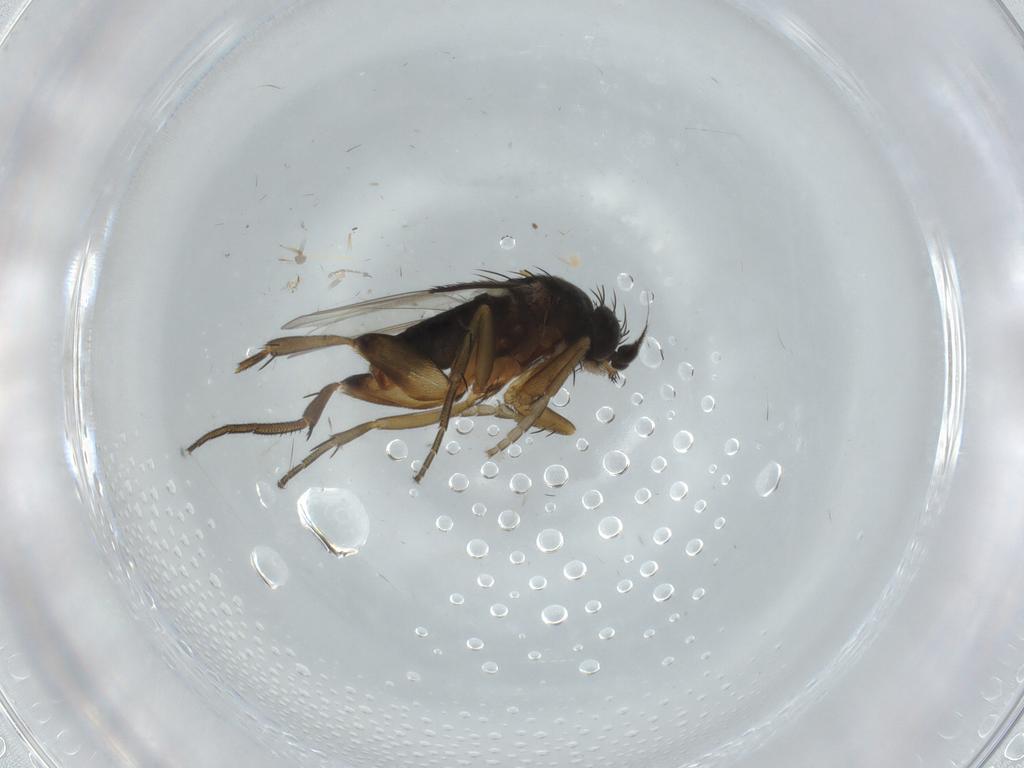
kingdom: Animalia
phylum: Arthropoda
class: Insecta
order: Diptera
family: Phoridae
